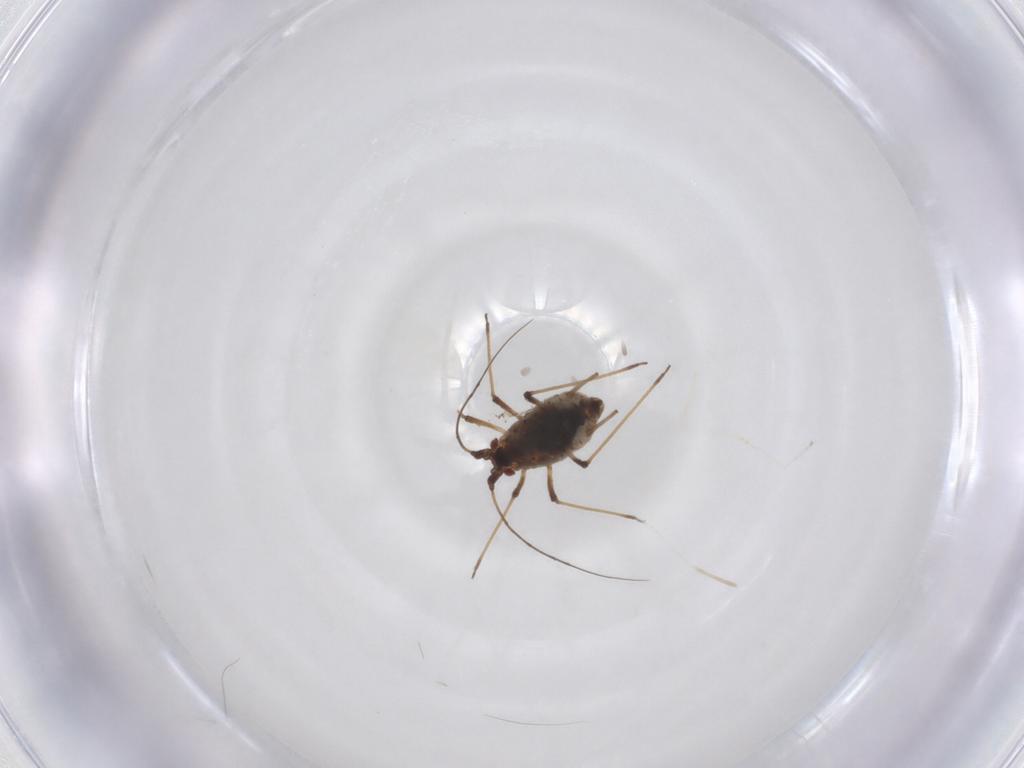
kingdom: Animalia
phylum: Arthropoda
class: Insecta
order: Hemiptera
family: Aphididae
